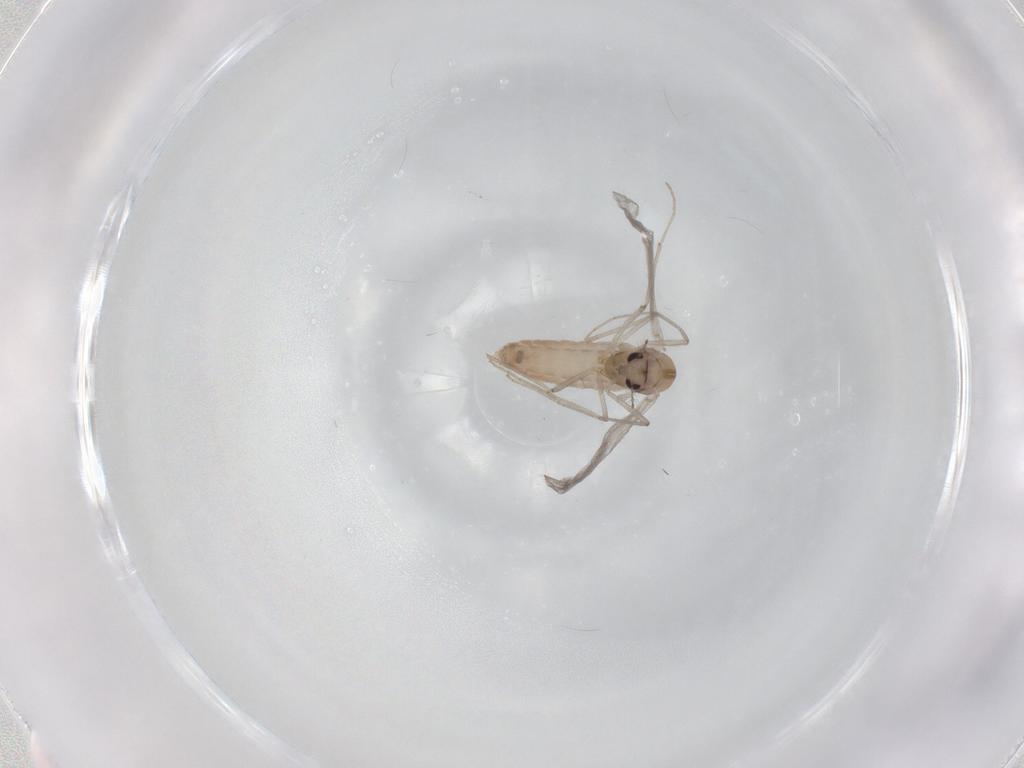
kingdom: Animalia
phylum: Arthropoda
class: Insecta
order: Diptera
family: Chironomidae
